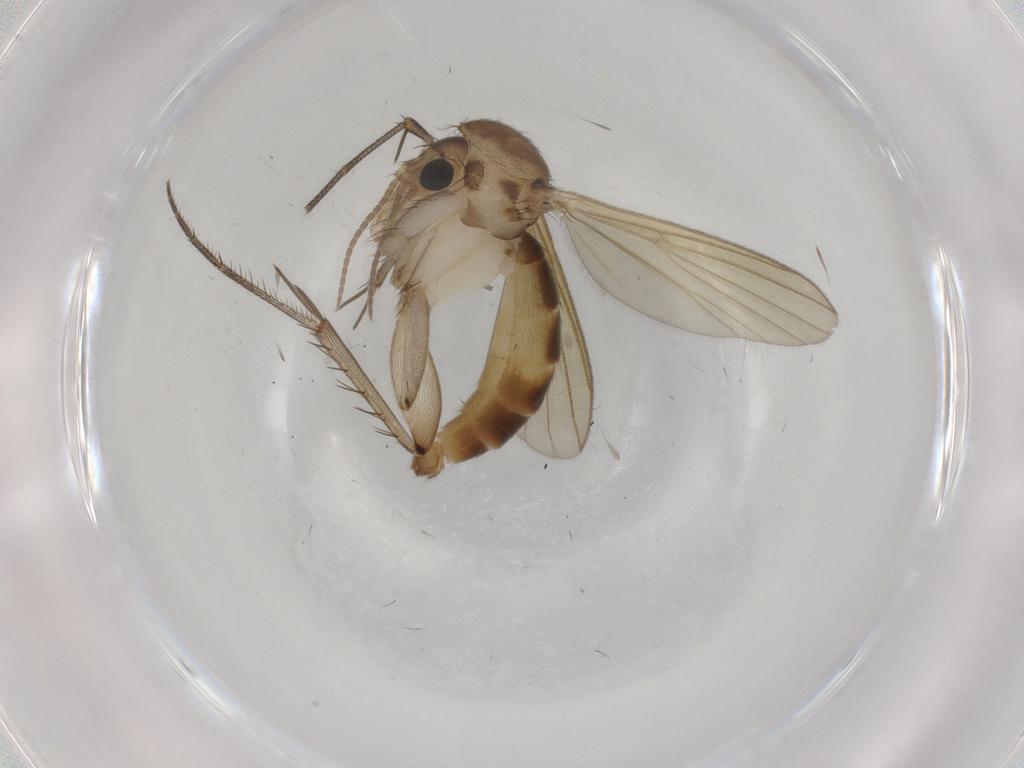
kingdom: Animalia
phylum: Arthropoda
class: Insecta
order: Diptera
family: Mycetophilidae
